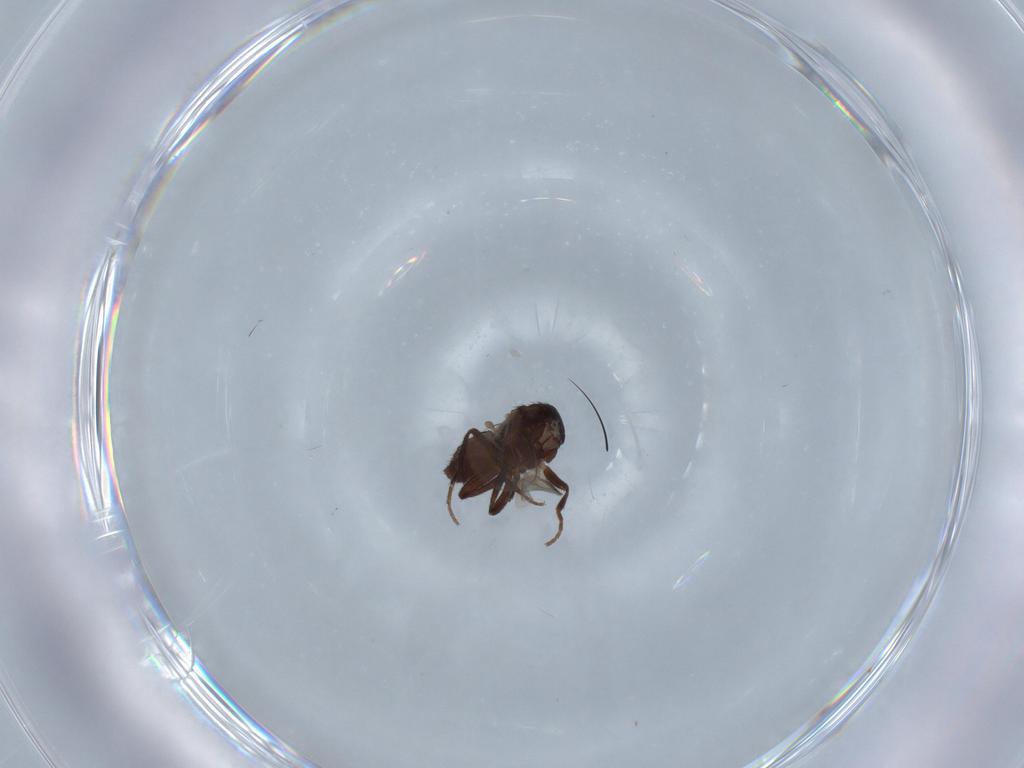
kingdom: Animalia
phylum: Arthropoda
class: Insecta
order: Diptera
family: Sphaeroceridae
